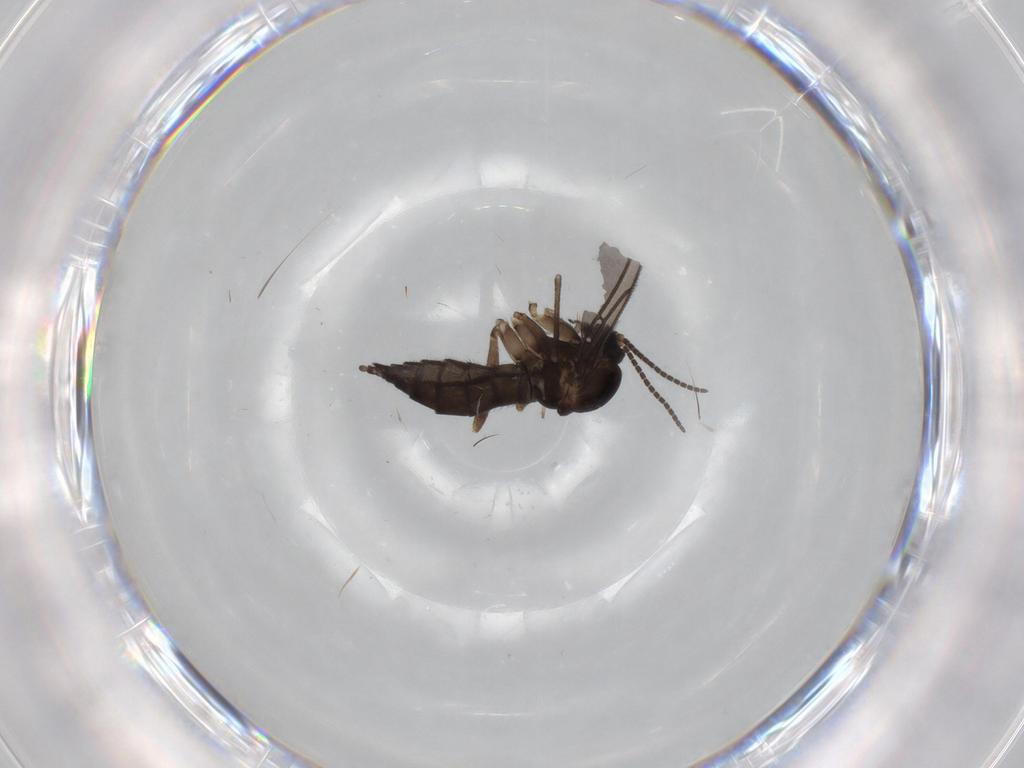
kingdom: Animalia
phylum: Arthropoda
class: Insecta
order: Diptera
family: Sciaridae
